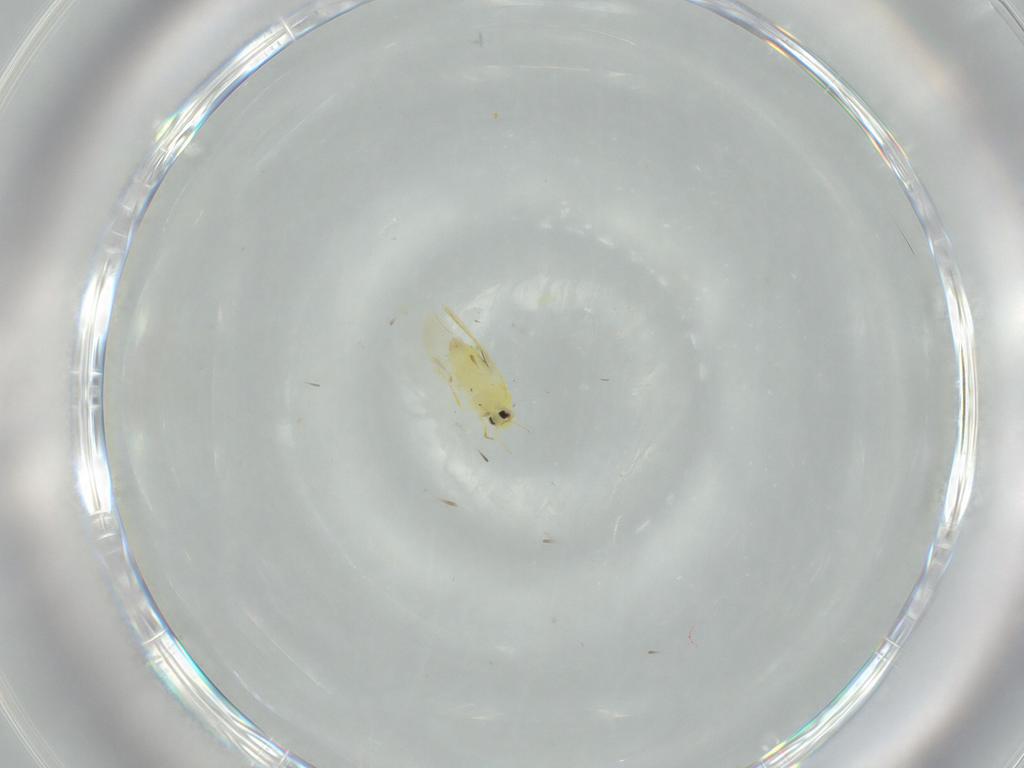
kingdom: Animalia
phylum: Arthropoda
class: Insecta
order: Hemiptera
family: Aleyrodidae
